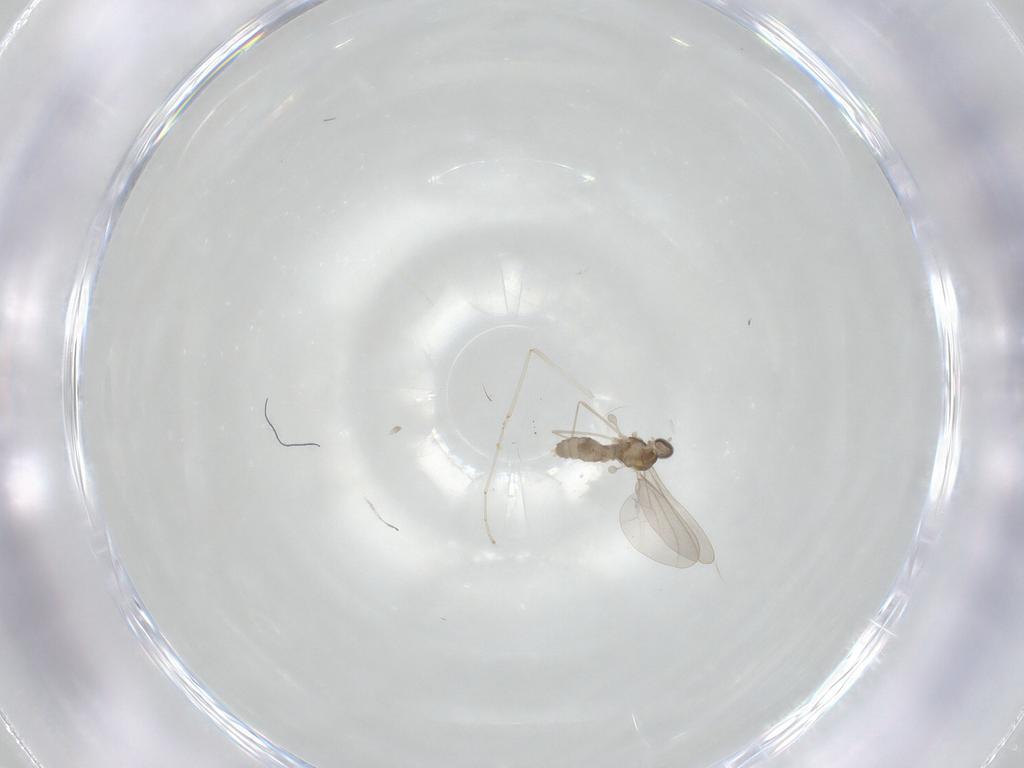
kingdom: Animalia
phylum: Arthropoda
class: Insecta
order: Diptera
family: Cecidomyiidae
